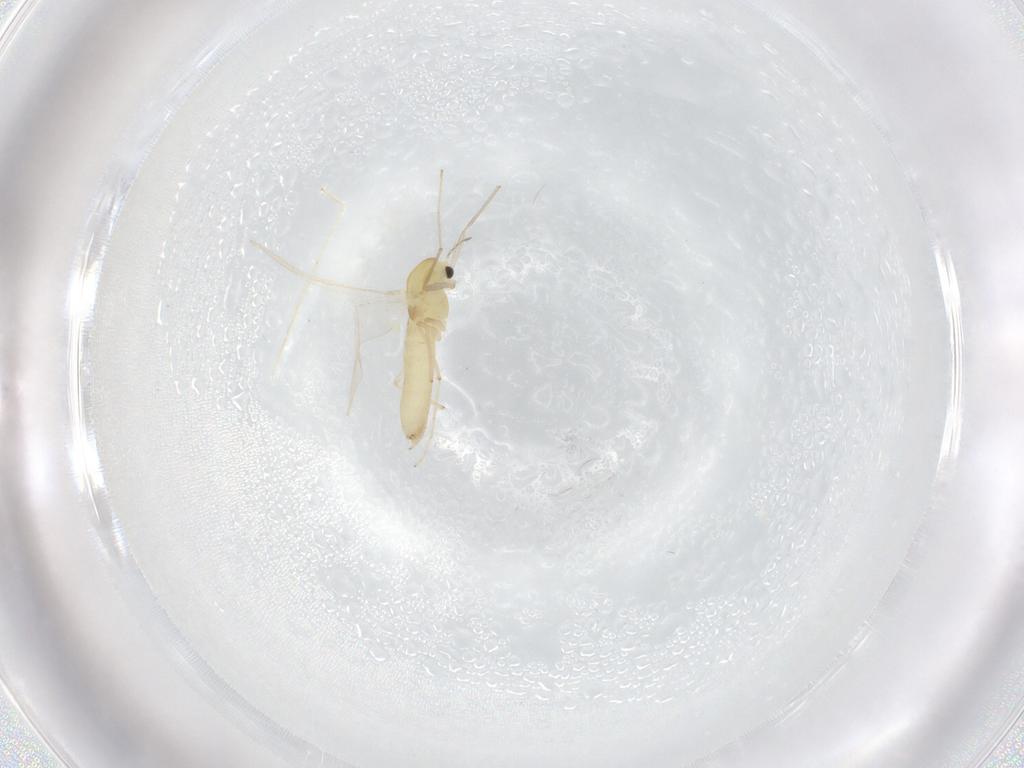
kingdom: Animalia
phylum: Arthropoda
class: Insecta
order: Diptera
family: Chironomidae
